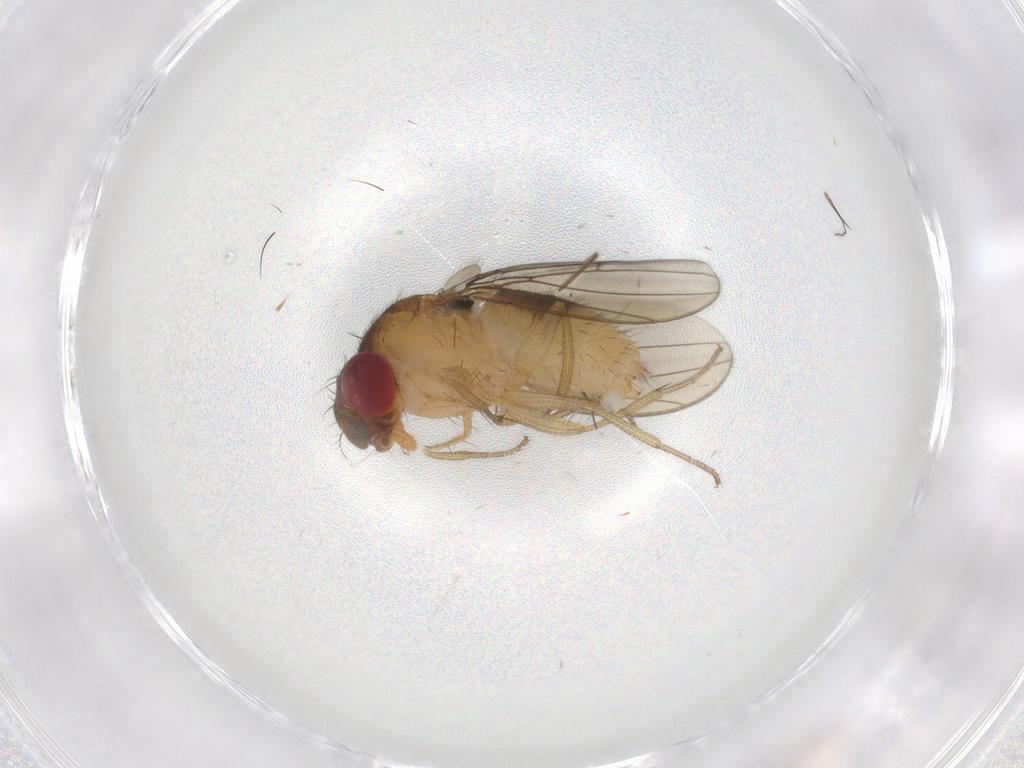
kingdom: Animalia
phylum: Arthropoda
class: Insecta
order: Diptera
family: Drosophilidae
